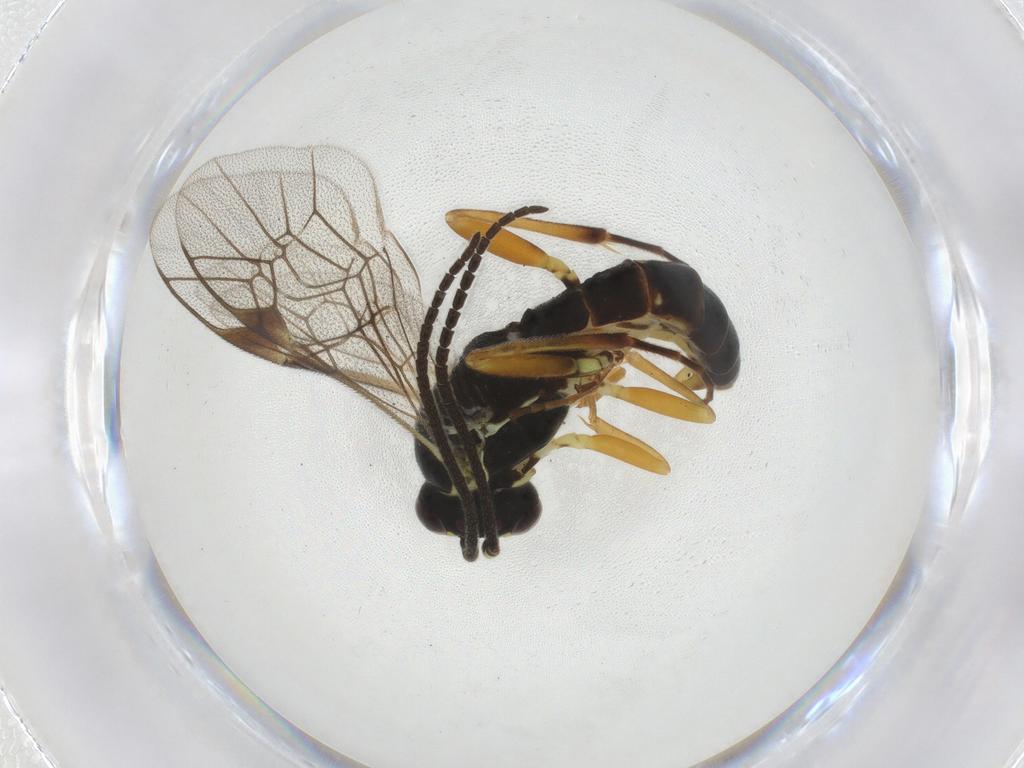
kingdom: Animalia
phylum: Arthropoda
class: Insecta
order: Hymenoptera
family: Ichneumonidae
